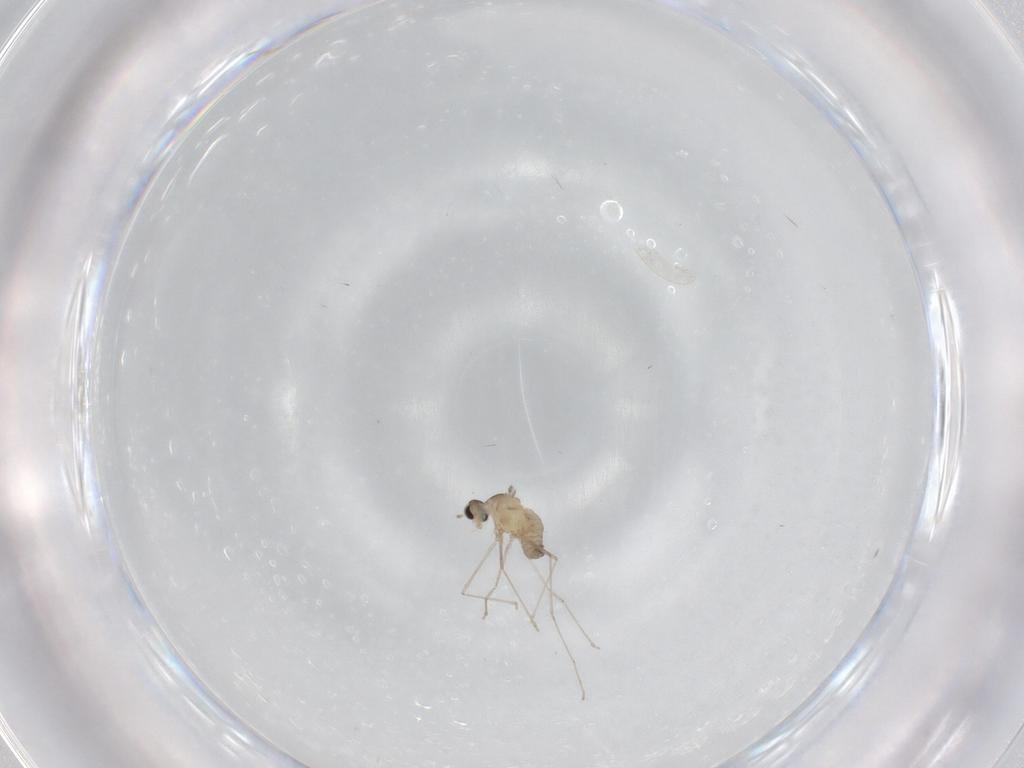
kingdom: Animalia
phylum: Arthropoda
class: Insecta
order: Diptera
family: Cecidomyiidae
